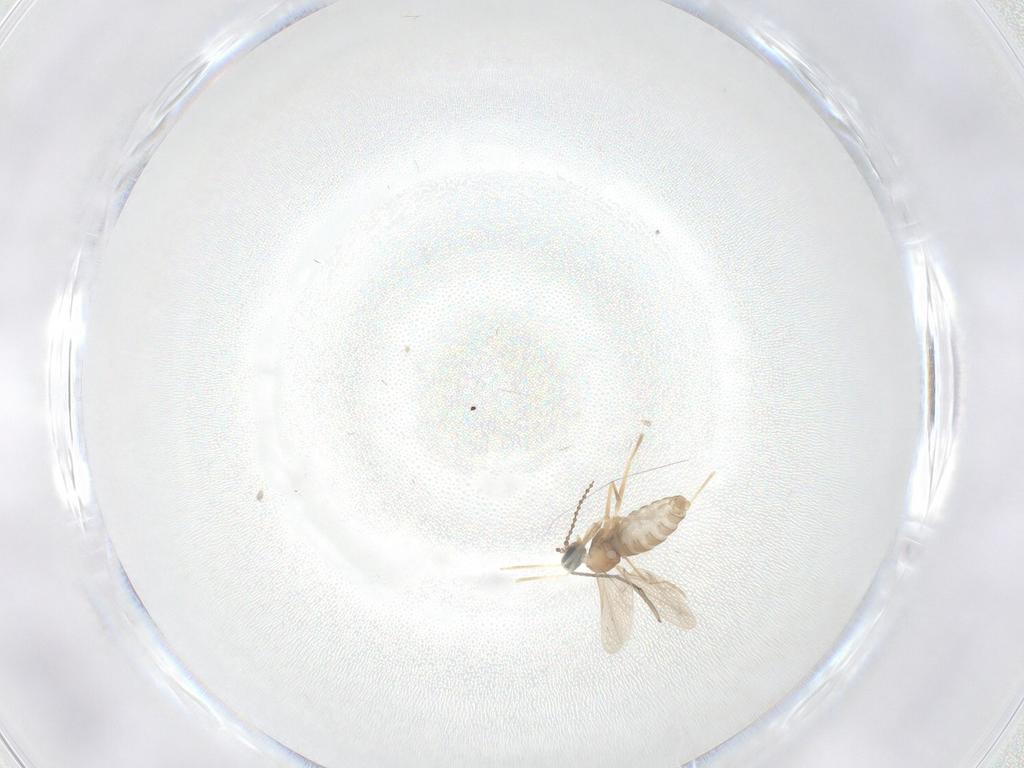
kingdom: Animalia
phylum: Arthropoda
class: Insecta
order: Diptera
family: Cecidomyiidae
